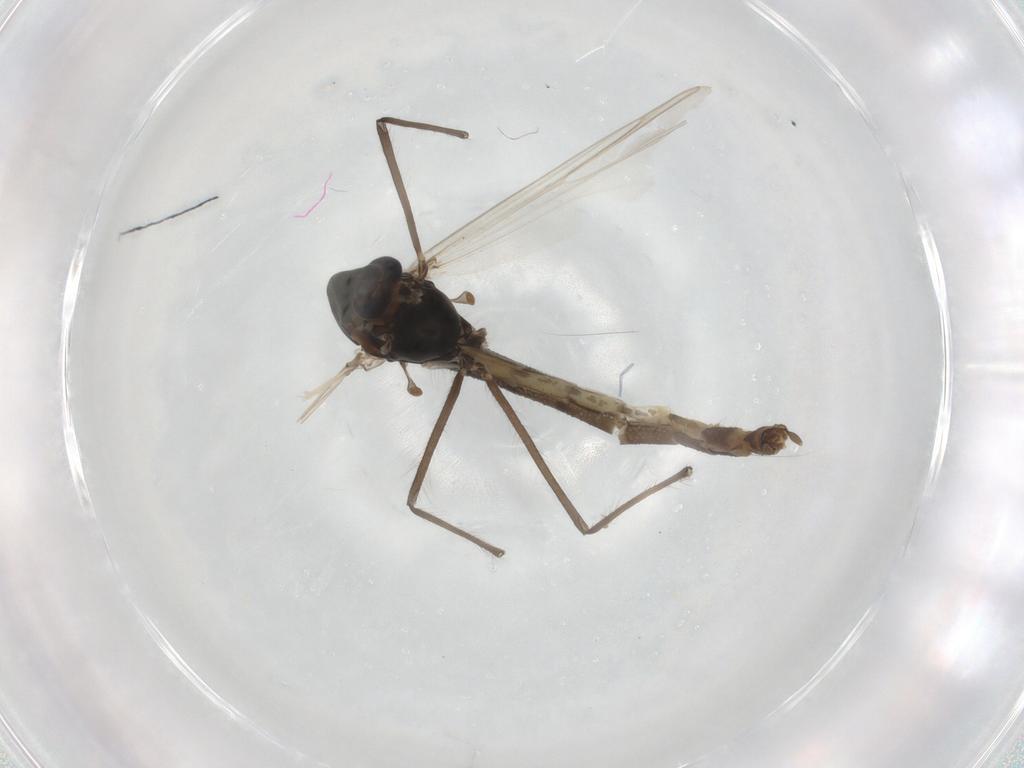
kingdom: Animalia
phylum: Arthropoda
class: Insecta
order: Diptera
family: Chironomidae
